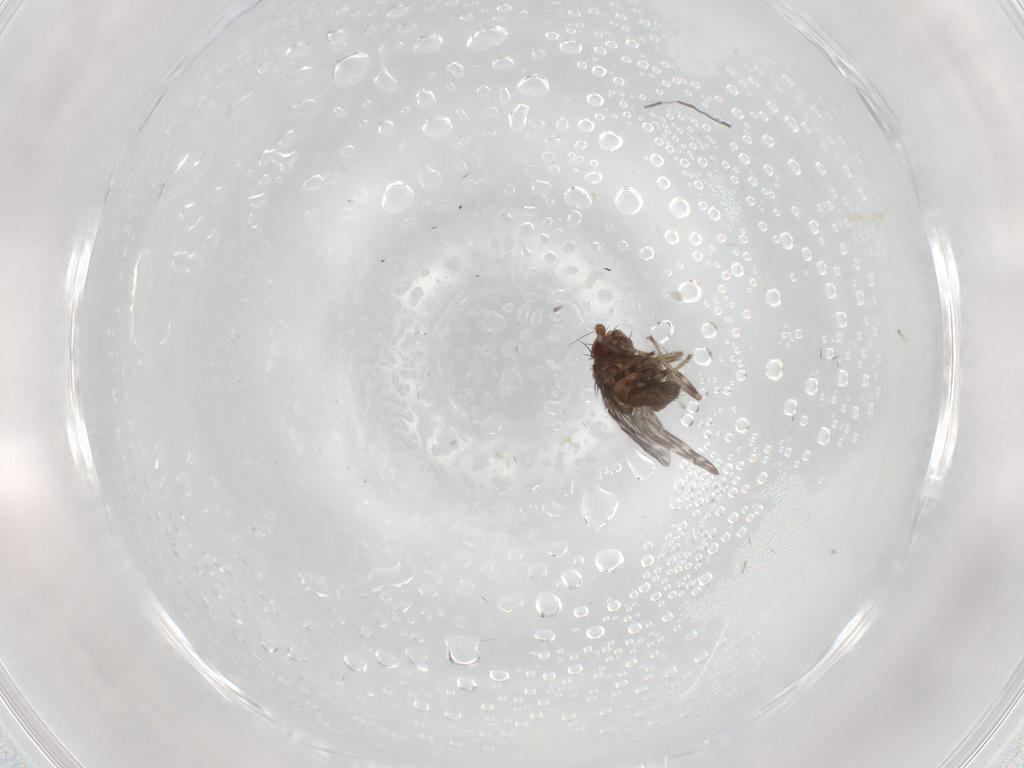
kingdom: Animalia
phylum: Arthropoda
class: Insecta
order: Diptera
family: Sphaeroceridae
